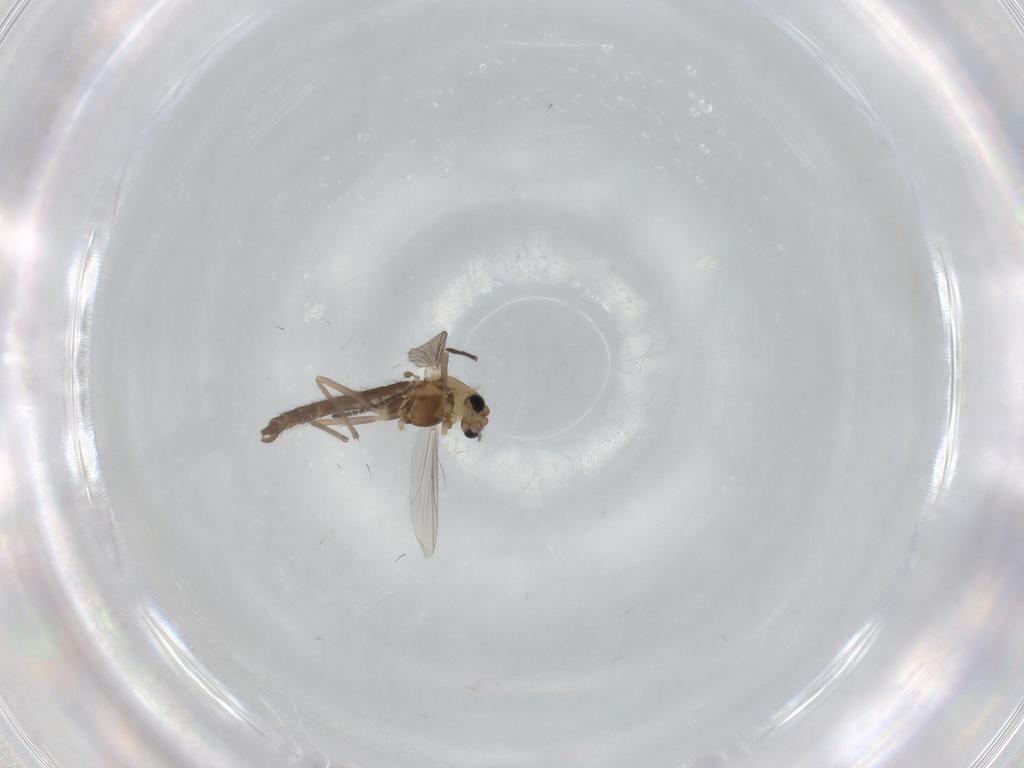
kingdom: Animalia
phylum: Arthropoda
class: Insecta
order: Diptera
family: Chironomidae
